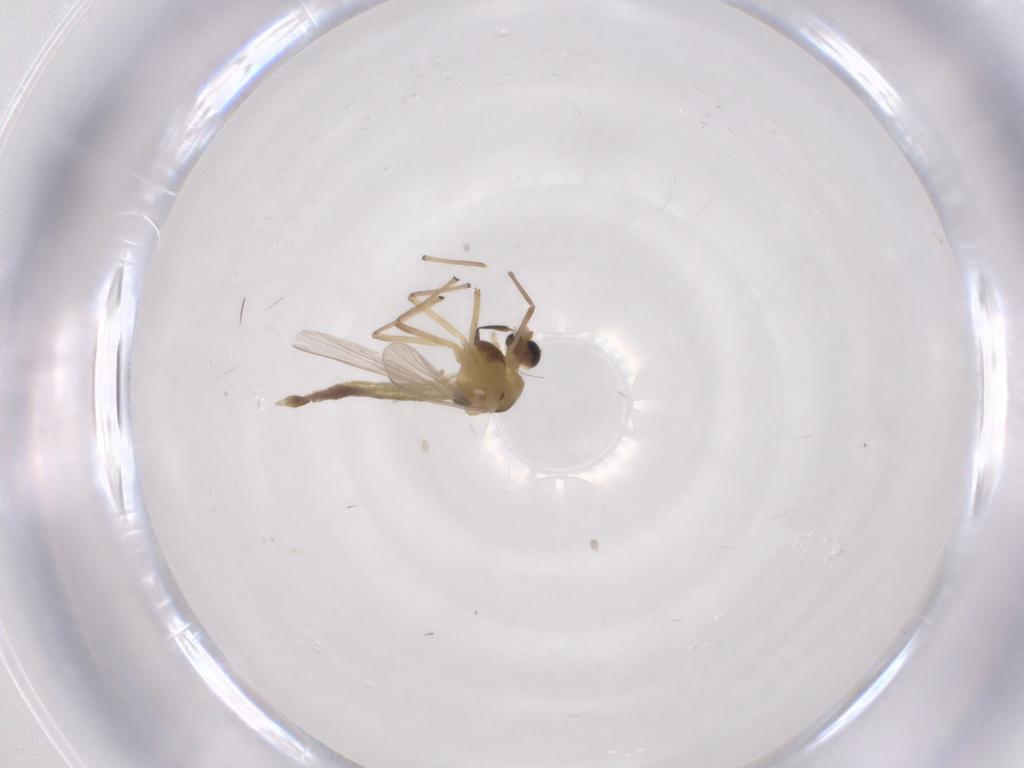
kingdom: Animalia
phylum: Arthropoda
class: Insecta
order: Diptera
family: Chironomidae
